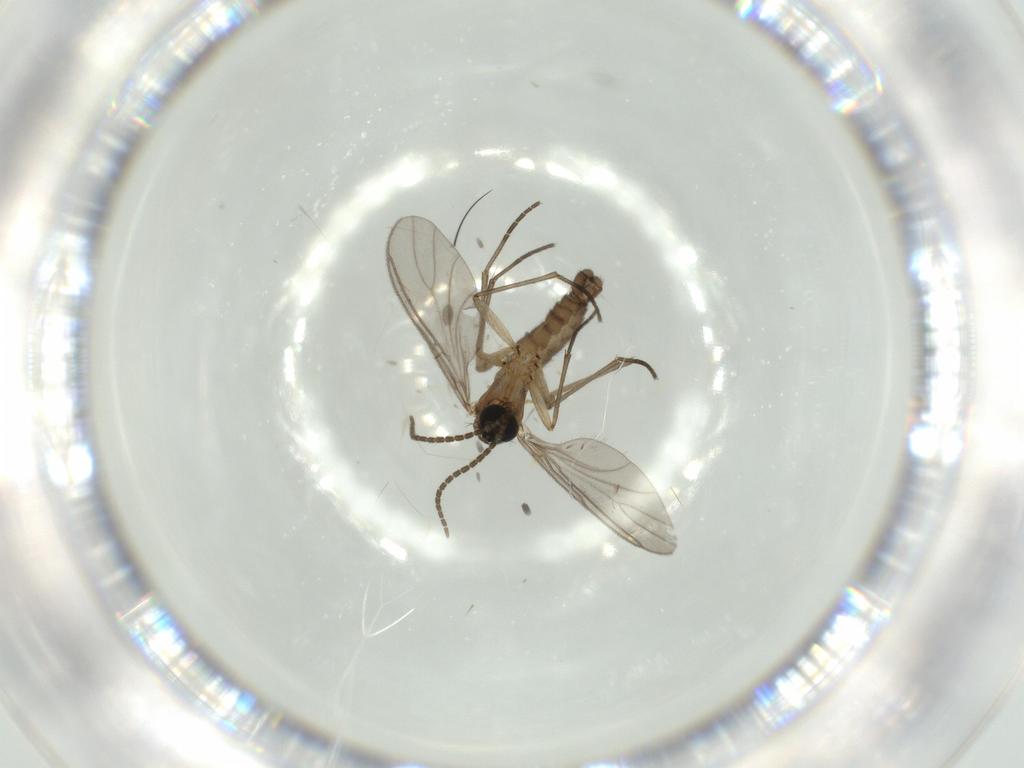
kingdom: Animalia
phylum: Arthropoda
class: Insecta
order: Diptera
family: Sciaridae
